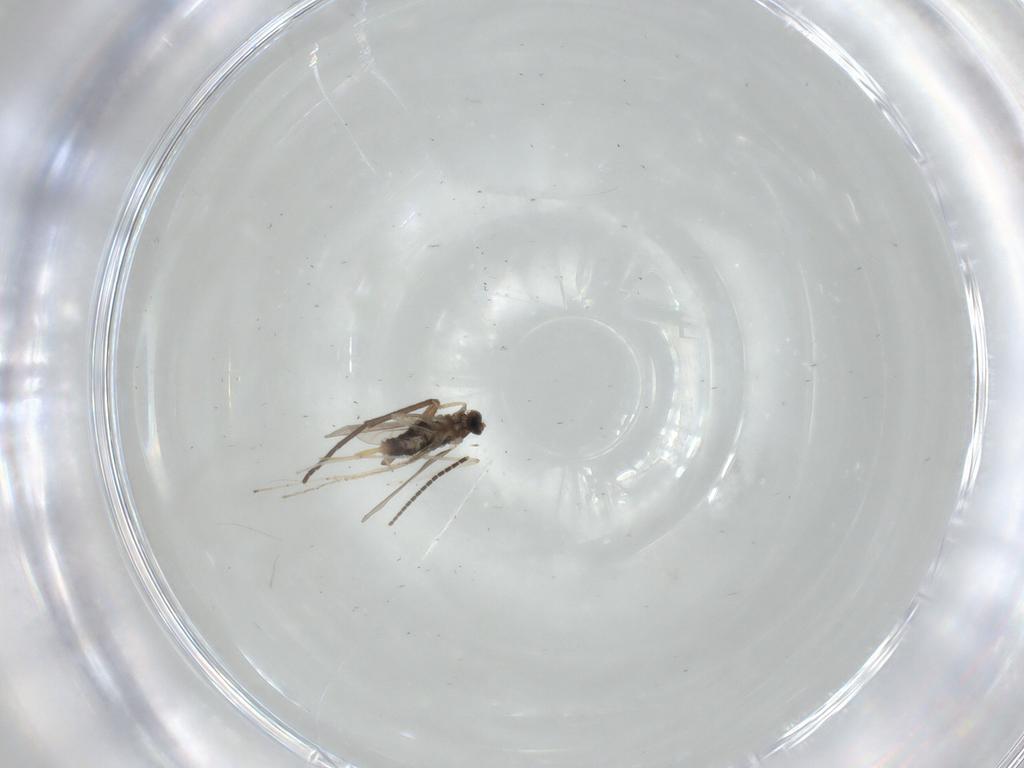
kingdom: Animalia
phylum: Arthropoda
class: Insecta
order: Diptera
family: Cecidomyiidae
